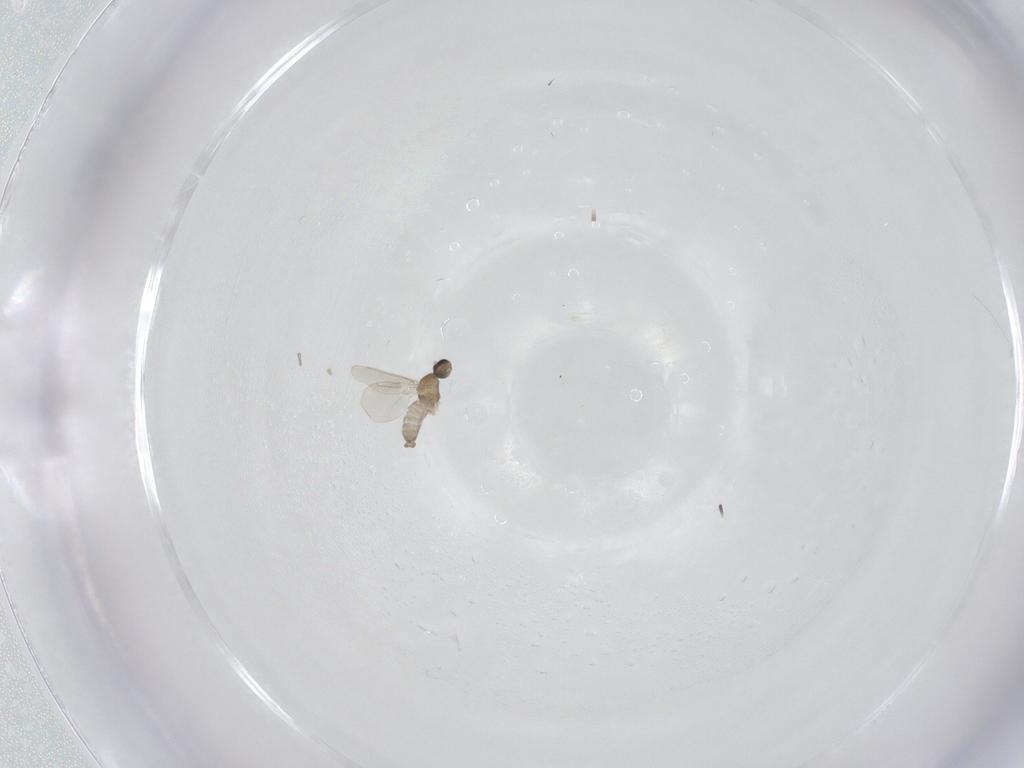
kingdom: Animalia
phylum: Arthropoda
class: Insecta
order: Diptera
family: Cecidomyiidae
